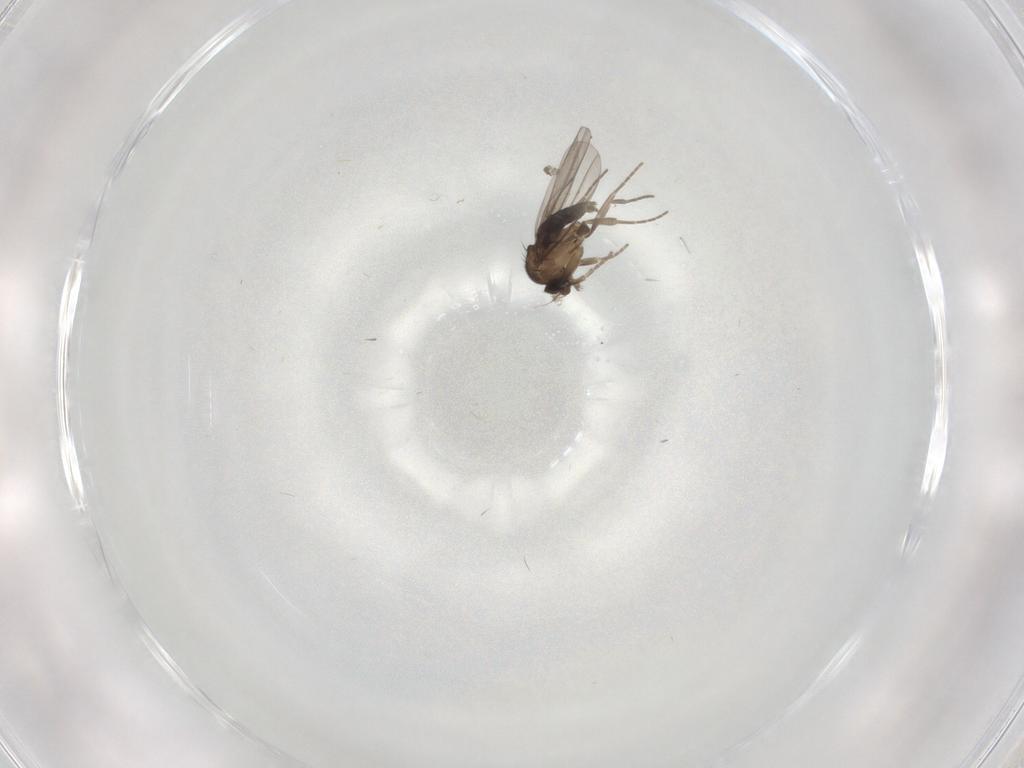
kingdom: Animalia
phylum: Arthropoda
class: Insecta
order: Diptera
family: Phoridae
